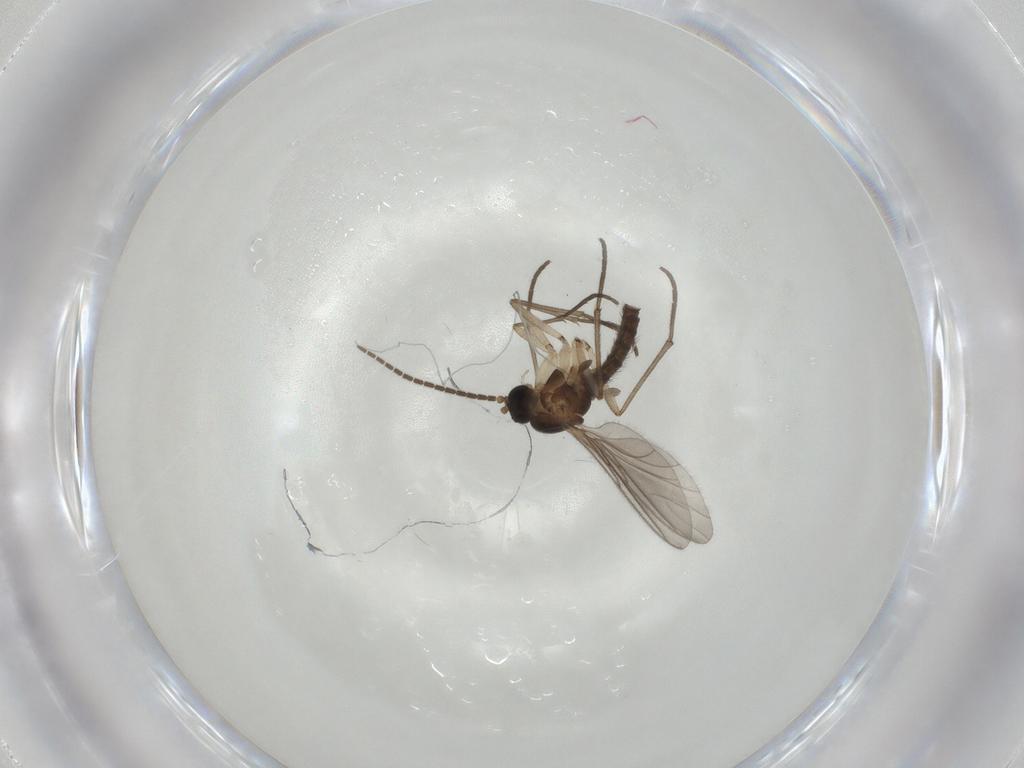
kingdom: Animalia
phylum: Arthropoda
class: Insecta
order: Diptera
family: Sciaridae
